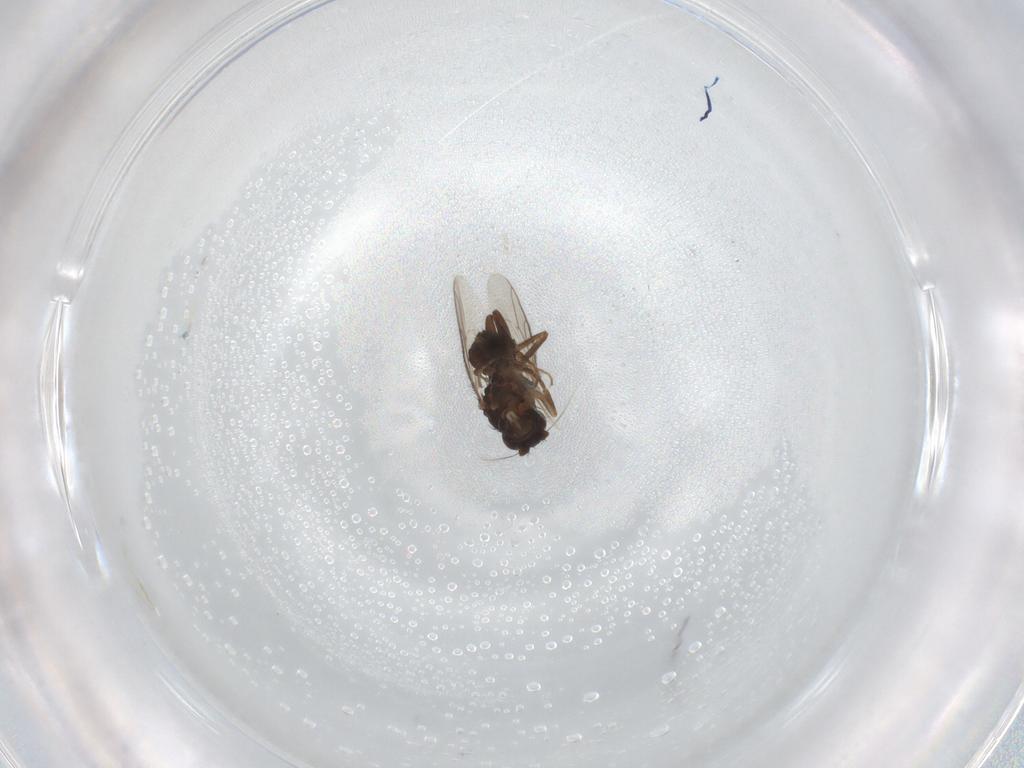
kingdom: Animalia
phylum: Arthropoda
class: Insecta
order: Diptera
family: Sphaeroceridae
